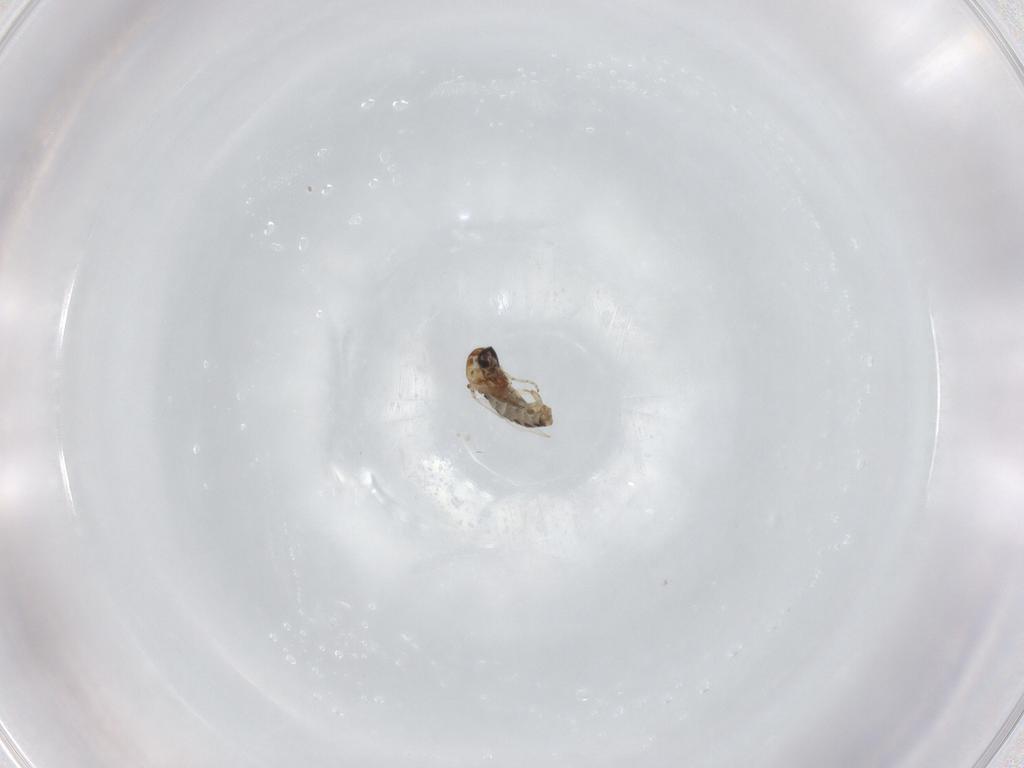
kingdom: Animalia
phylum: Arthropoda
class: Insecta
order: Diptera
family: Ceratopogonidae
